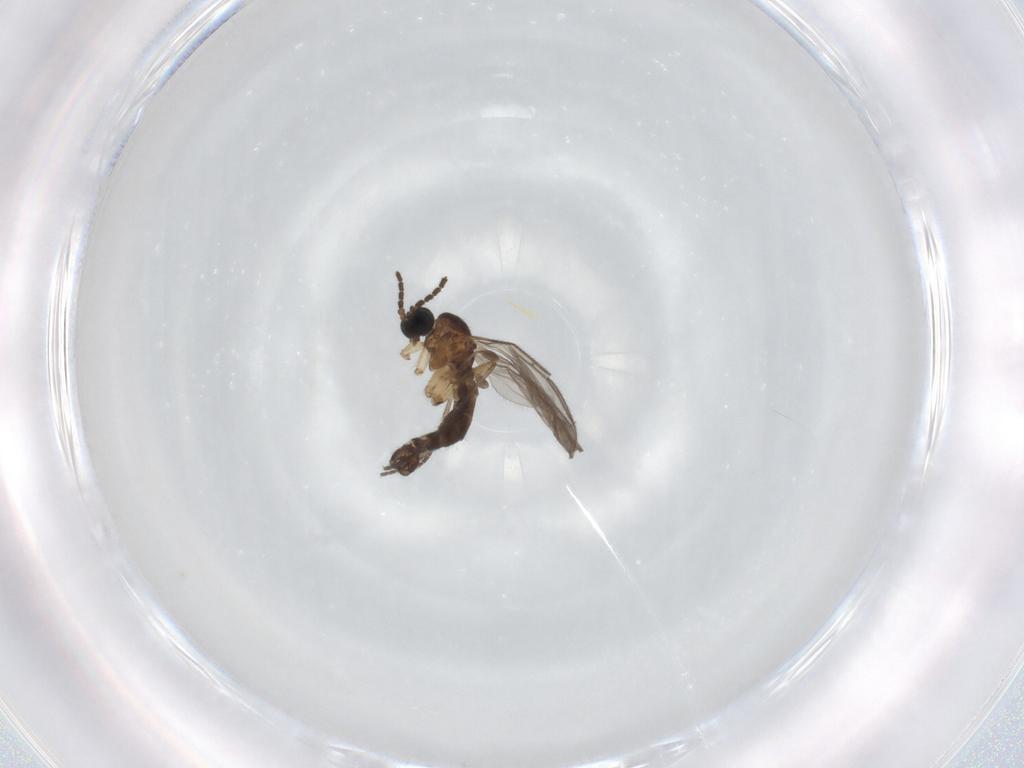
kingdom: Animalia
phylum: Arthropoda
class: Insecta
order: Diptera
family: Sciaridae
